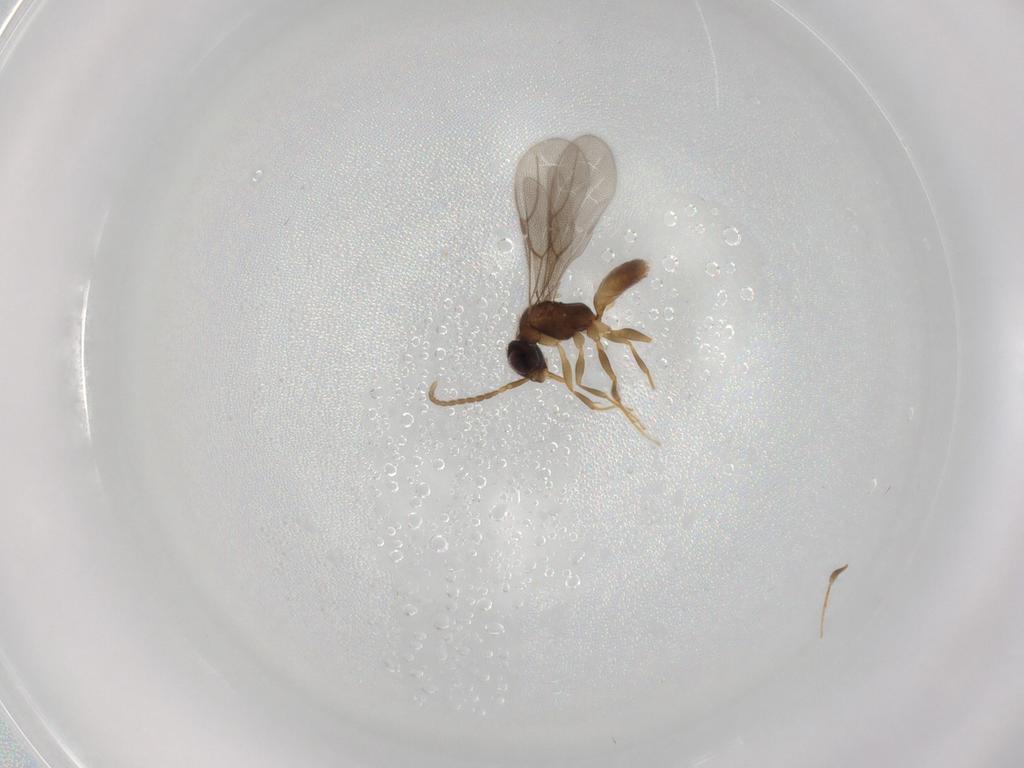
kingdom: Animalia
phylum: Arthropoda
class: Insecta
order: Hymenoptera
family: Bethylidae
